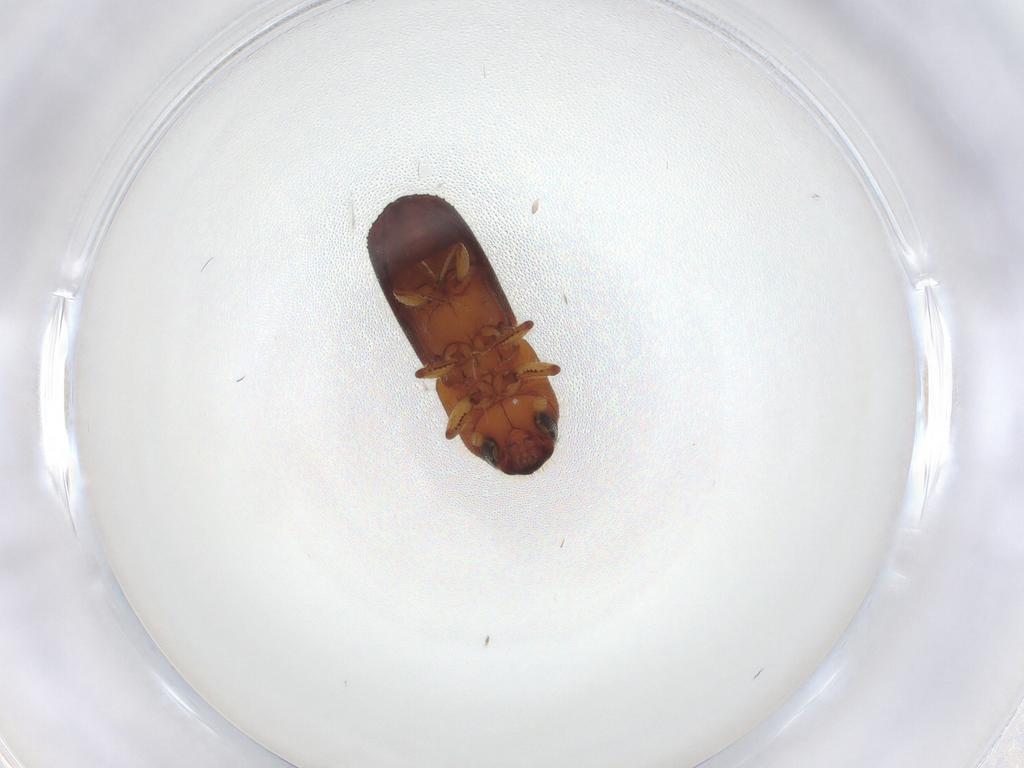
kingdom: Animalia
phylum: Arthropoda
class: Insecta
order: Coleoptera
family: Curculionidae
